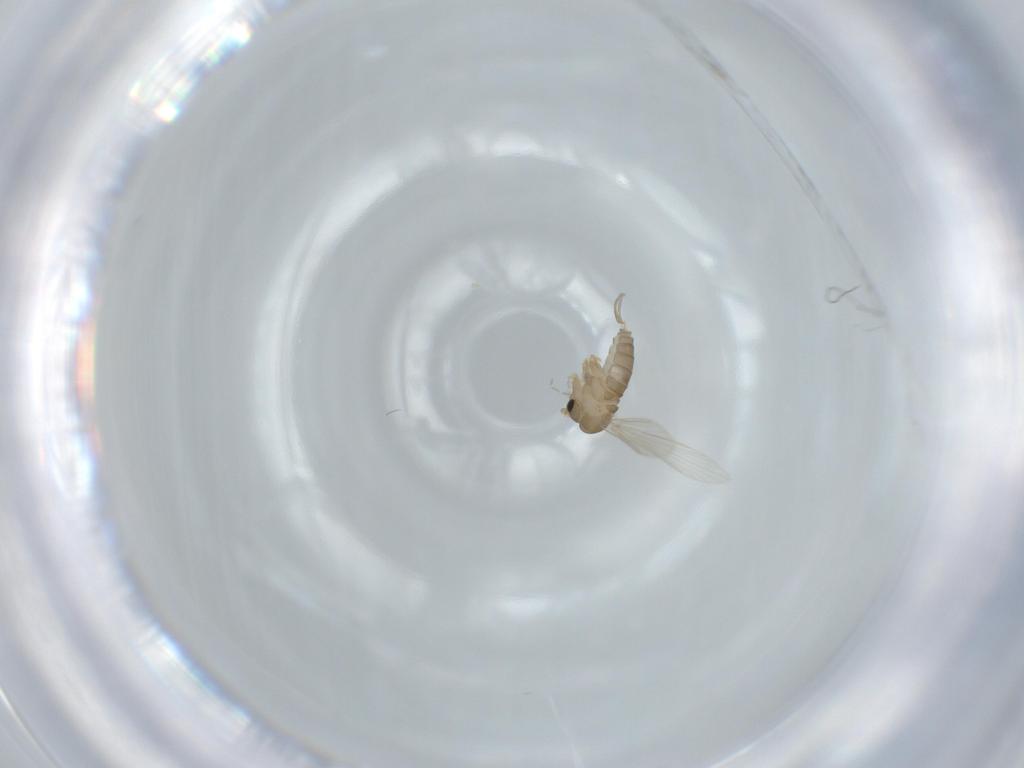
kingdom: Animalia
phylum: Arthropoda
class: Insecta
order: Diptera
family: Psychodidae
